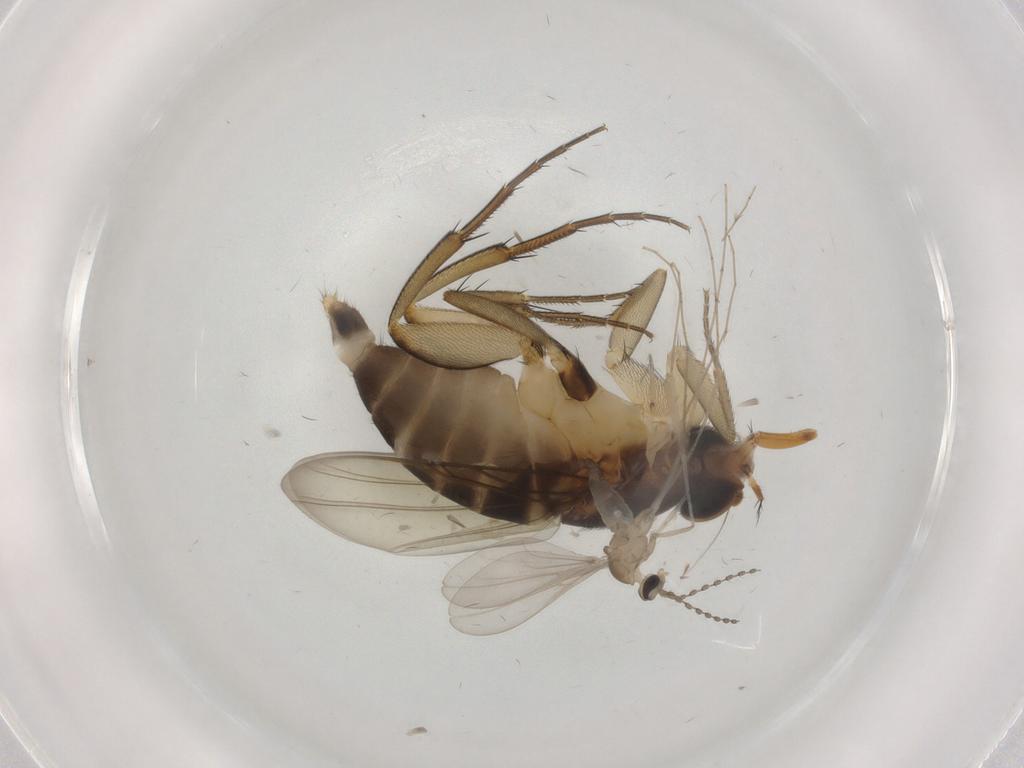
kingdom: Animalia
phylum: Arthropoda
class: Insecta
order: Diptera
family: Phoridae
